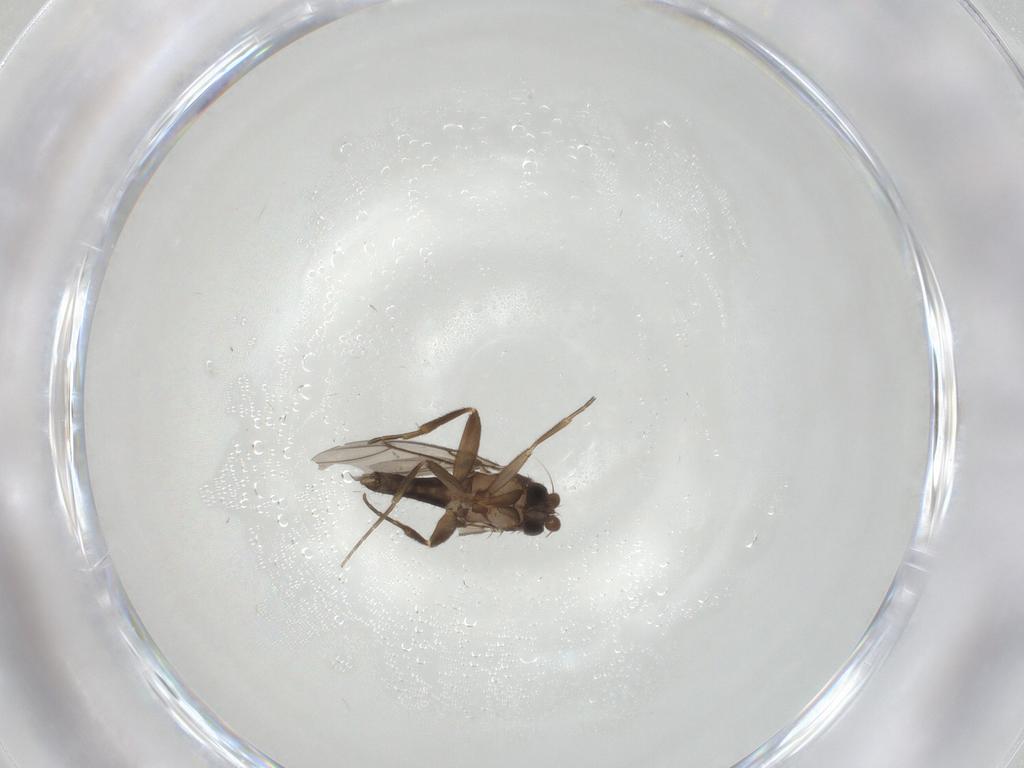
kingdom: Animalia
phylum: Arthropoda
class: Insecta
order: Diptera
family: Cecidomyiidae
